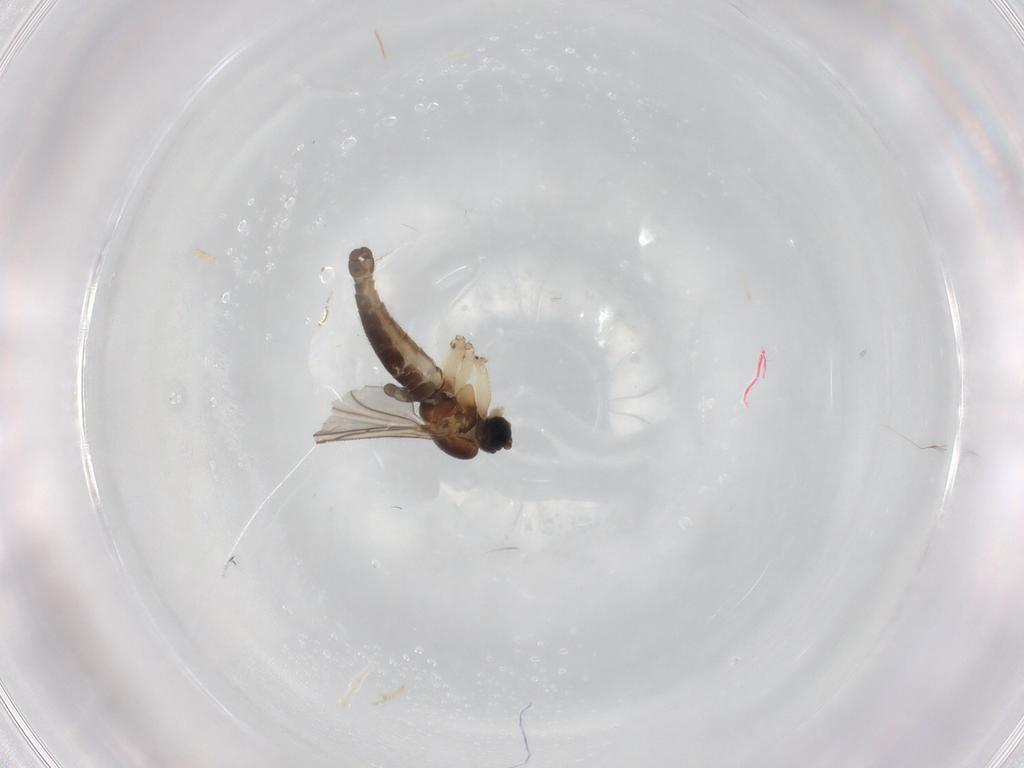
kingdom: Animalia
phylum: Arthropoda
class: Insecta
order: Diptera
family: Sciaridae
